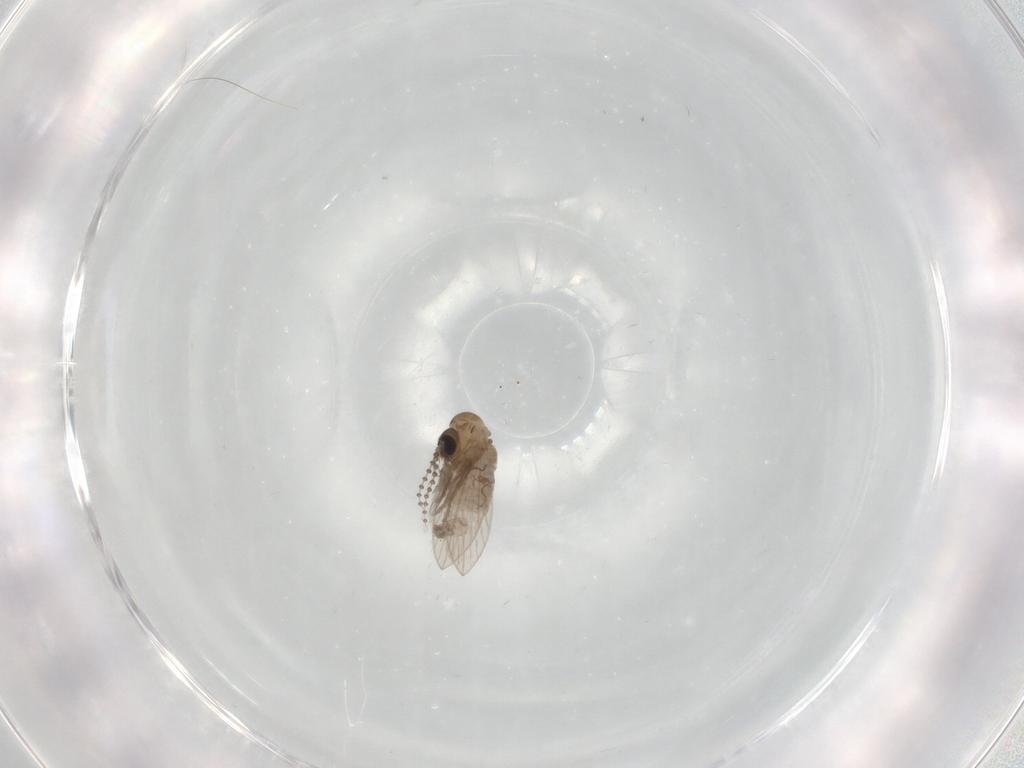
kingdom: Animalia
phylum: Arthropoda
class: Insecta
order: Diptera
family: Psychodidae
